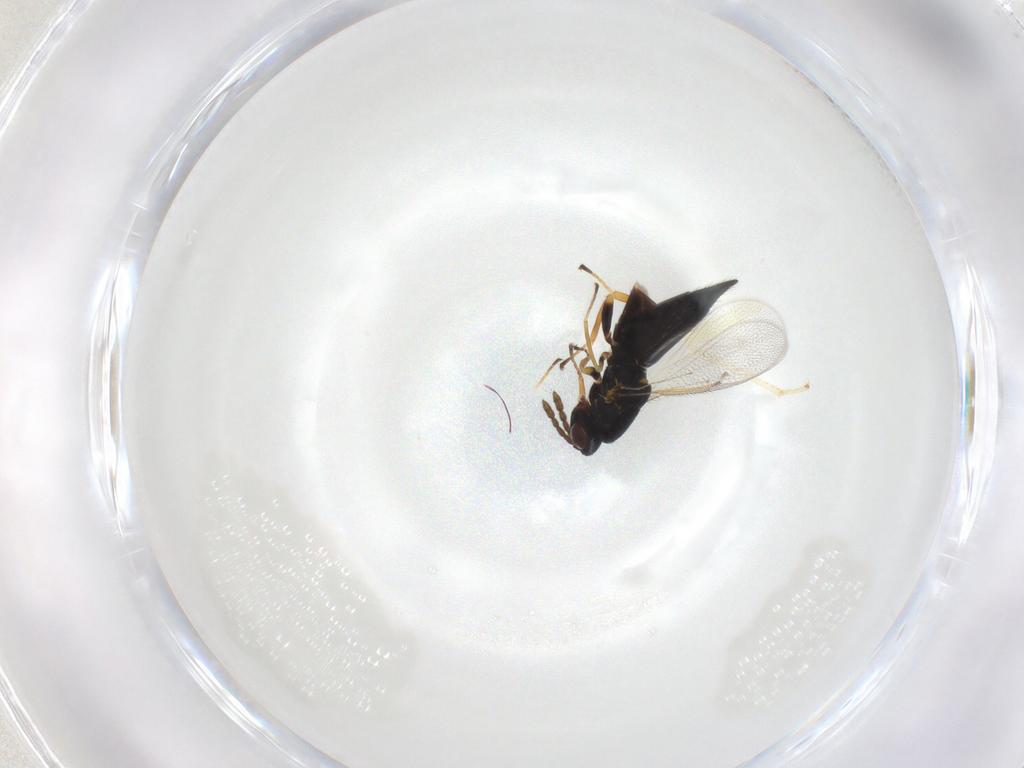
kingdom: Animalia
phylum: Arthropoda
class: Insecta
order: Hymenoptera
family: Eulophidae
